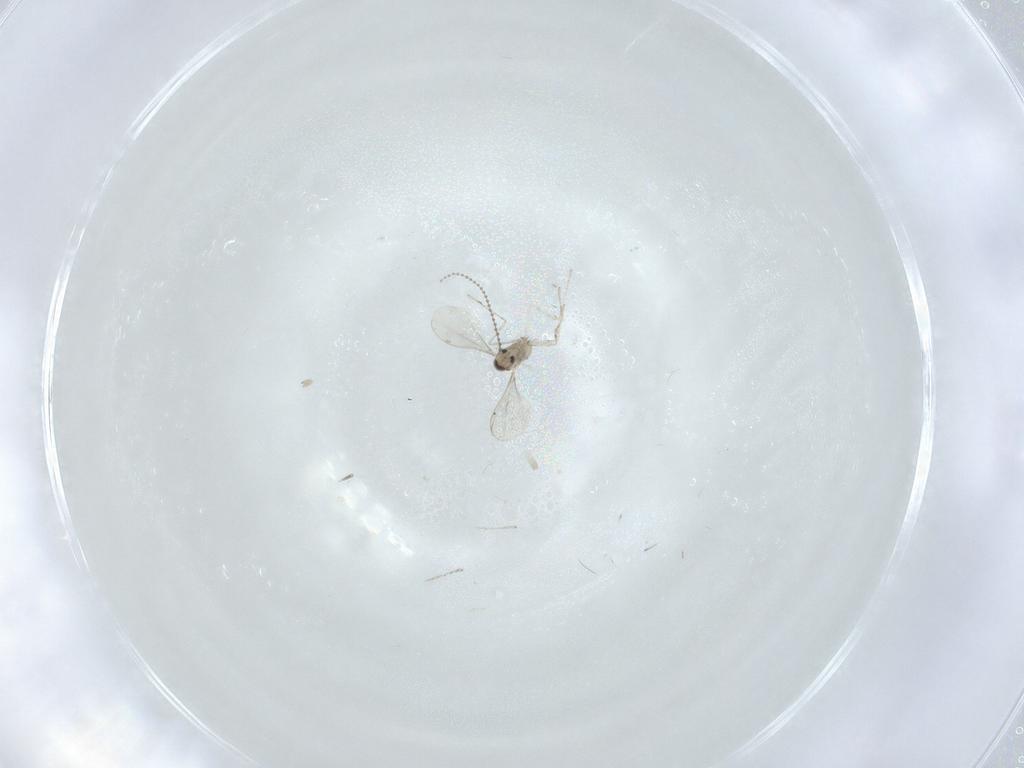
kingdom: Animalia
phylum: Arthropoda
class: Insecta
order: Diptera
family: Cecidomyiidae
